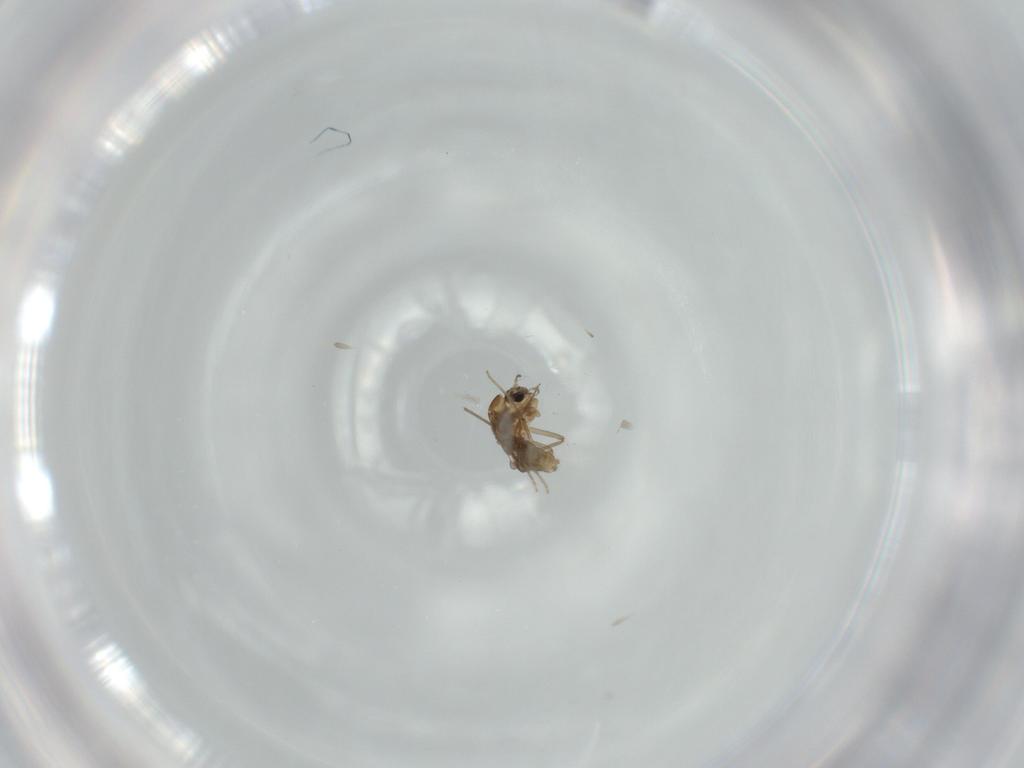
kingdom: Animalia
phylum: Arthropoda
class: Insecta
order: Diptera
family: Chironomidae
